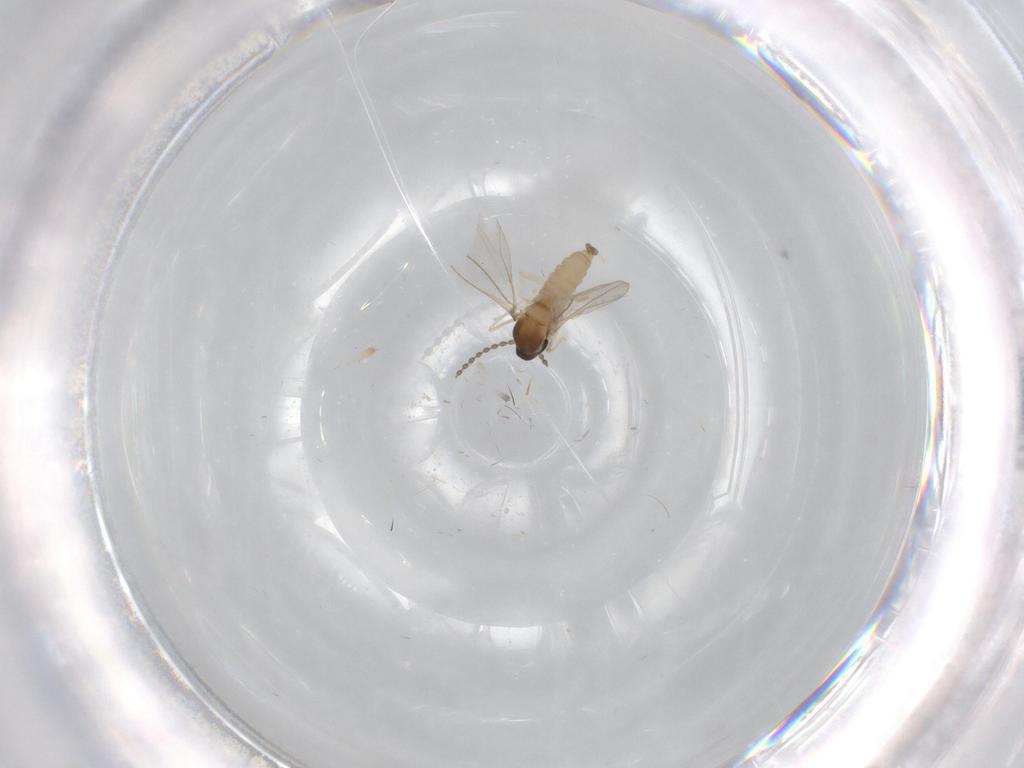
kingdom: Animalia
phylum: Arthropoda
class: Insecta
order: Diptera
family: Cecidomyiidae
